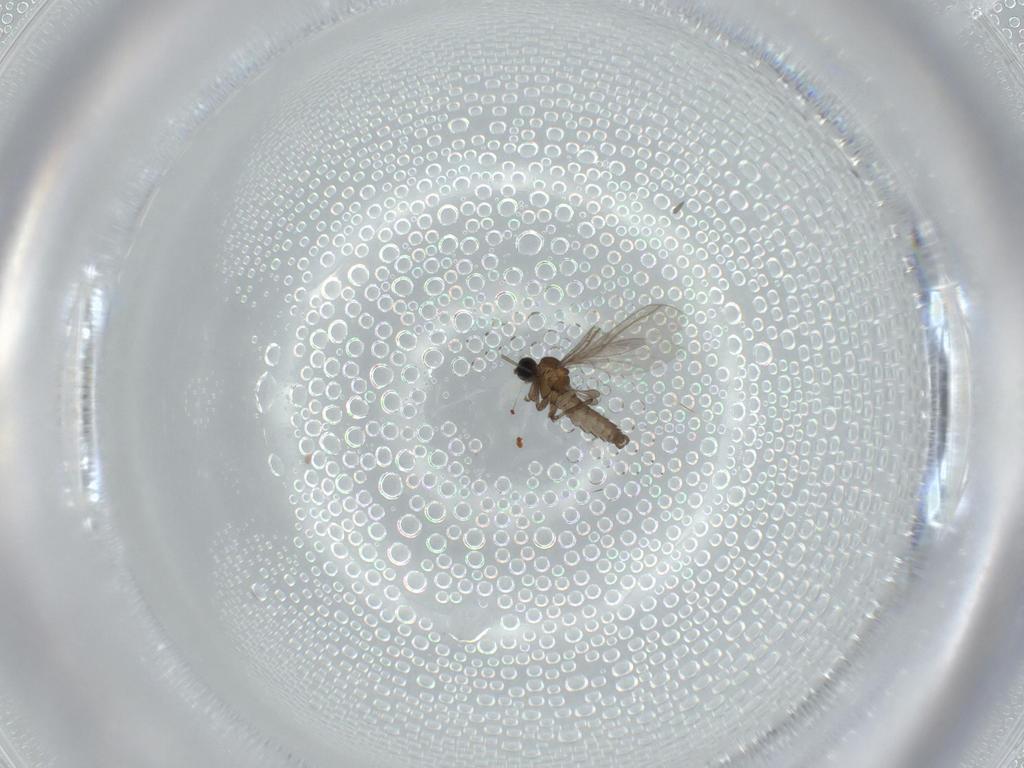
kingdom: Animalia
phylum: Arthropoda
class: Insecta
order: Diptera
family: Sciaridae
